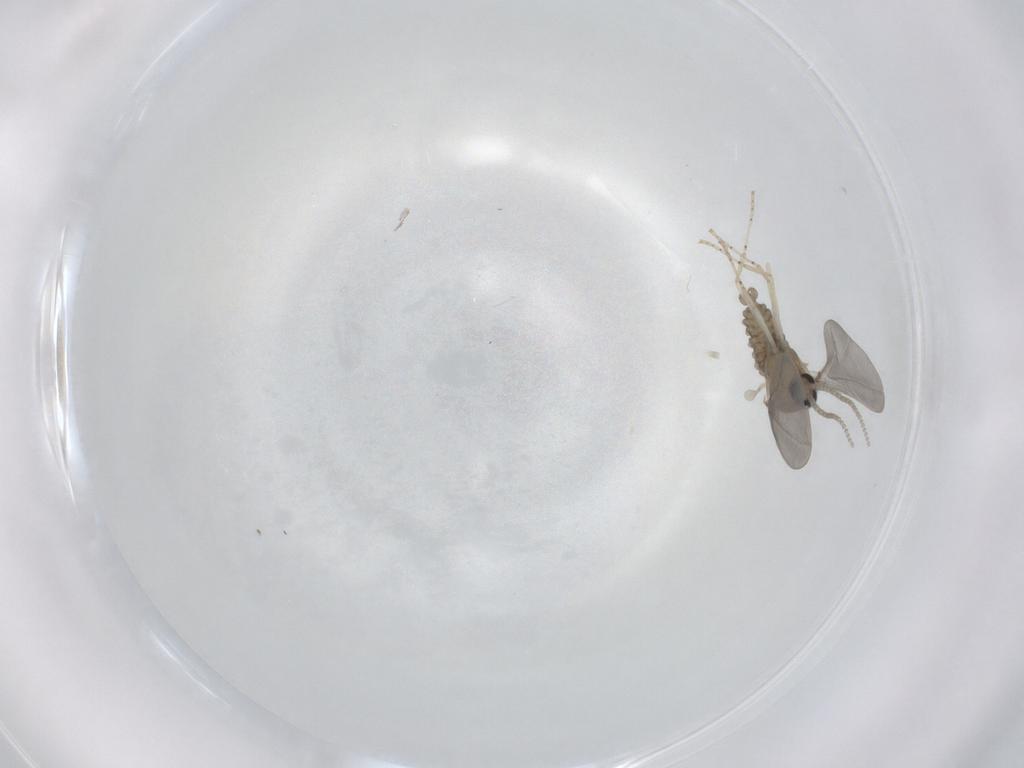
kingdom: Animalia
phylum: Arthropoda
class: Insecta
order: Diptera
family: Cecidomyiidae
